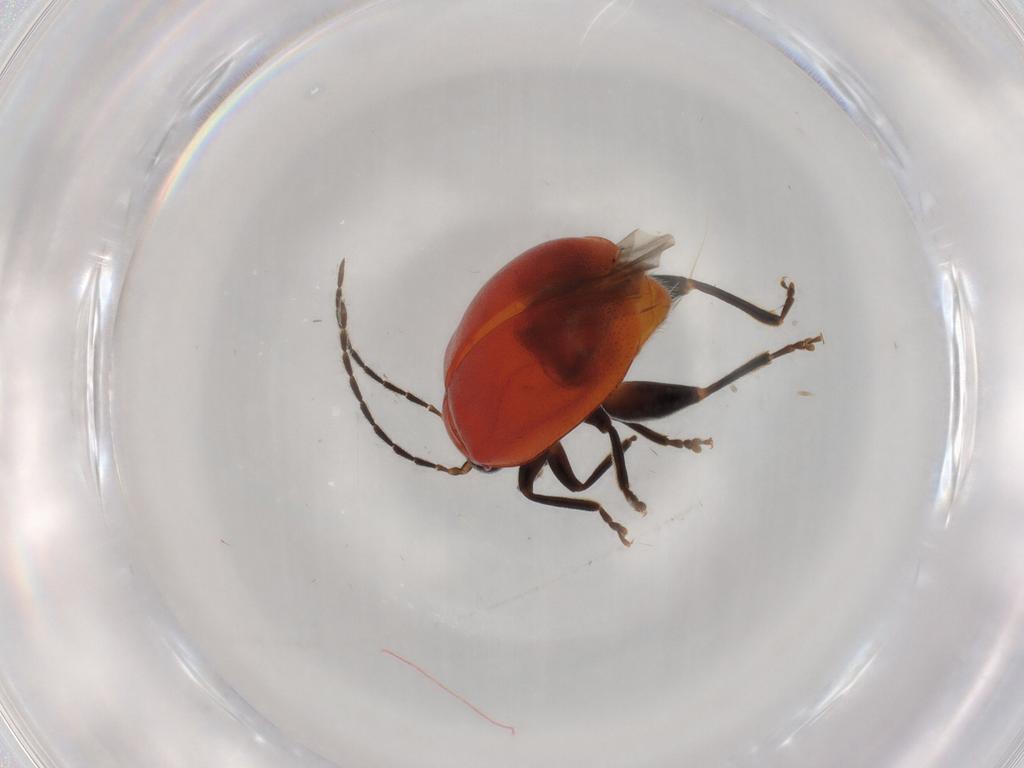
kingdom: Animalia
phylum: Arthropoda
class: Insecta
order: Coleoptera
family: Chrysomelidae
